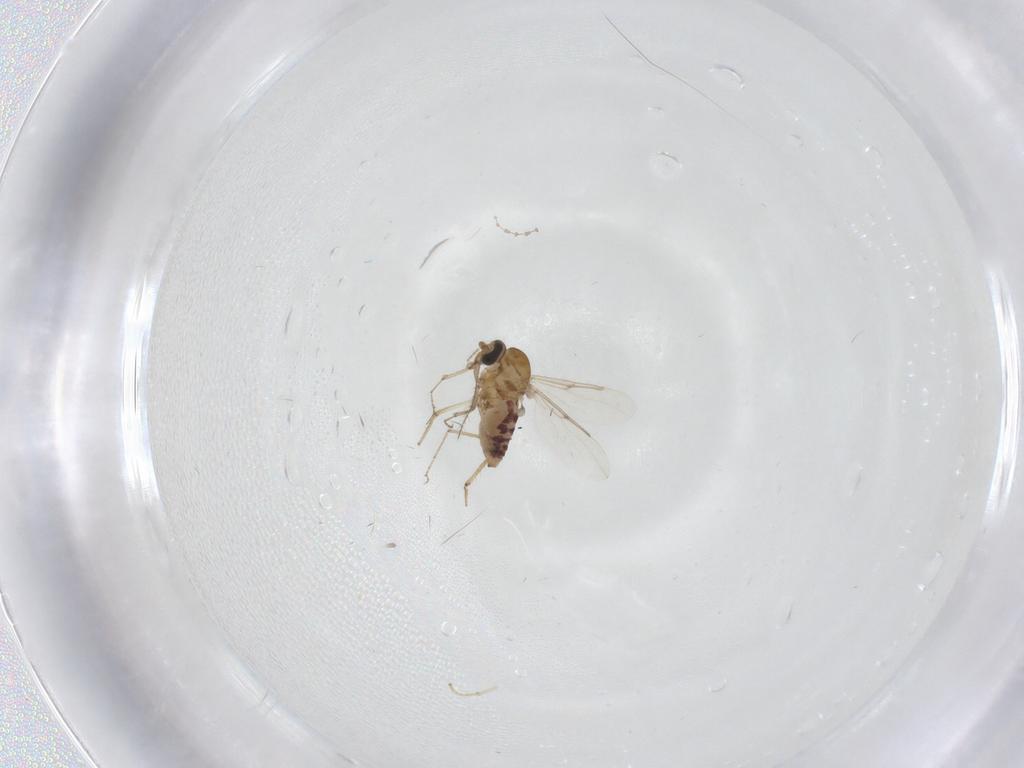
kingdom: Animalia
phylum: Arthropoda
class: Insecta
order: Diptera
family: Ceratopogonidae
